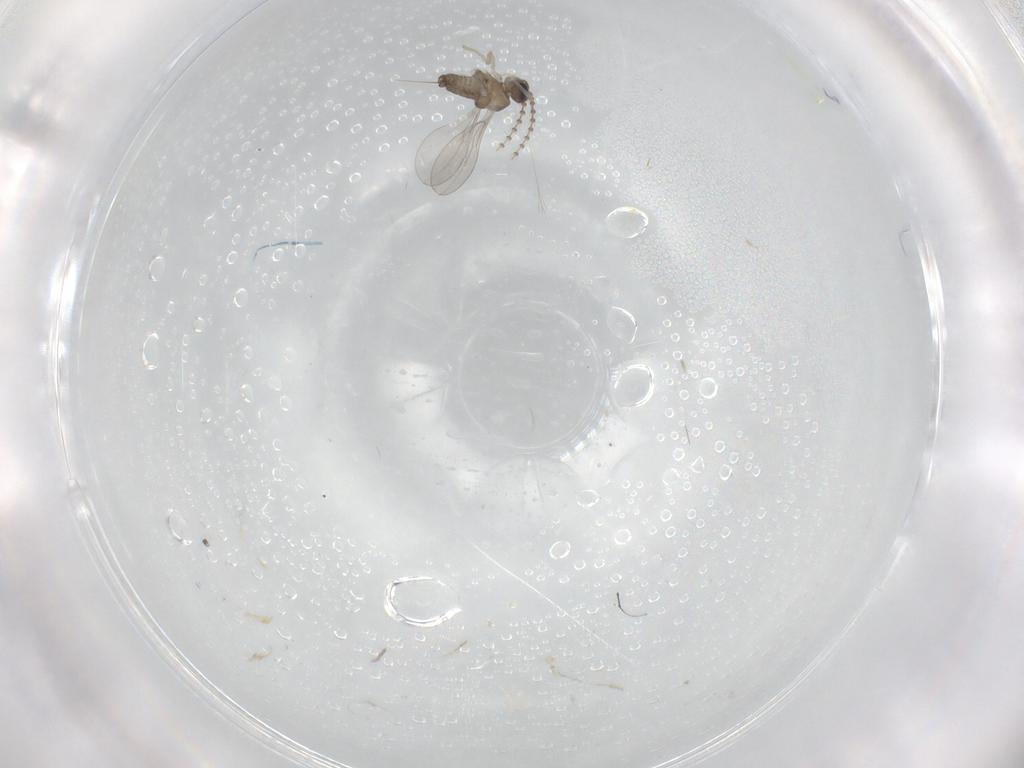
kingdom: Animalia
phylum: Arthropoda
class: Insecta
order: Diptera
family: Cecidomyiidae
